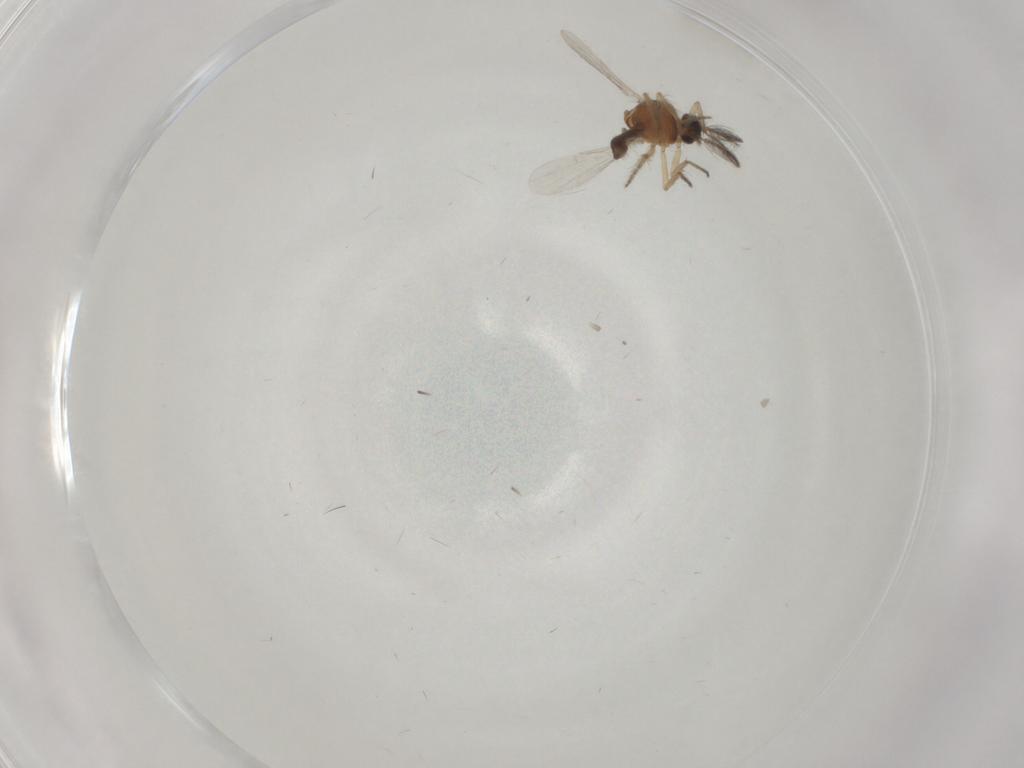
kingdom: Animalia
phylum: Arthropoda
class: Insecta
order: Diptera
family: Ceratopogonidae
